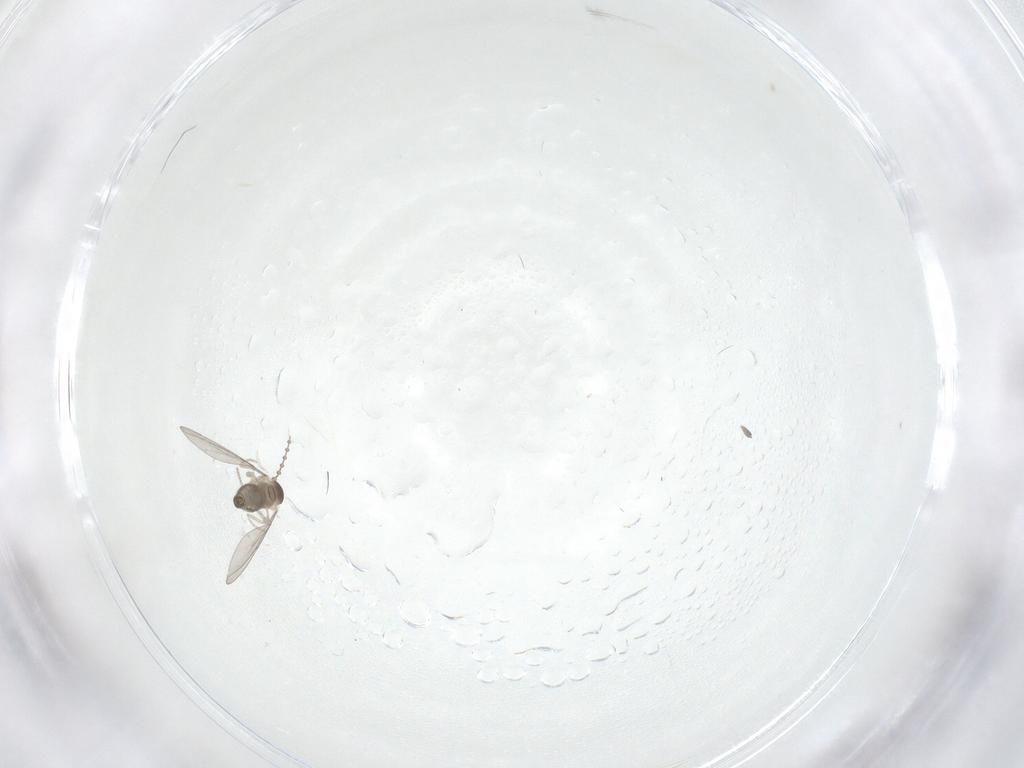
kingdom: Animalia
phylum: Arthropoda
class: Insecta
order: Diptera
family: Cecidomyiidae
